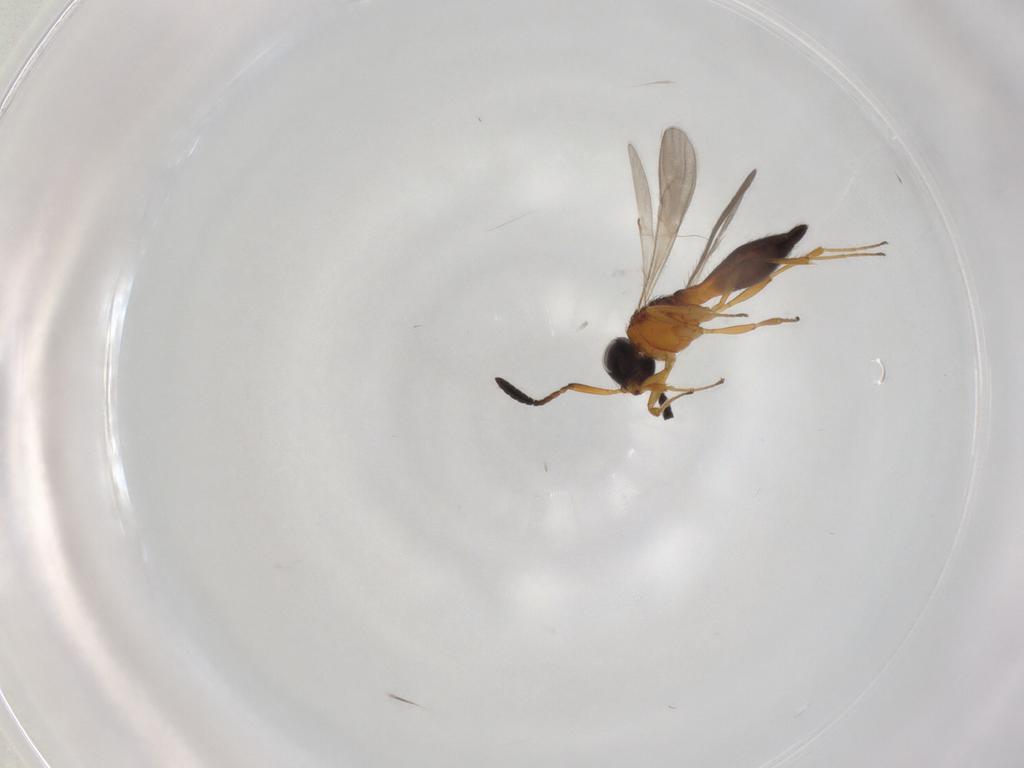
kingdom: Animalia
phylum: Arthropoda
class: Insecta
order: Hymenoptera
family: Scelionidae
